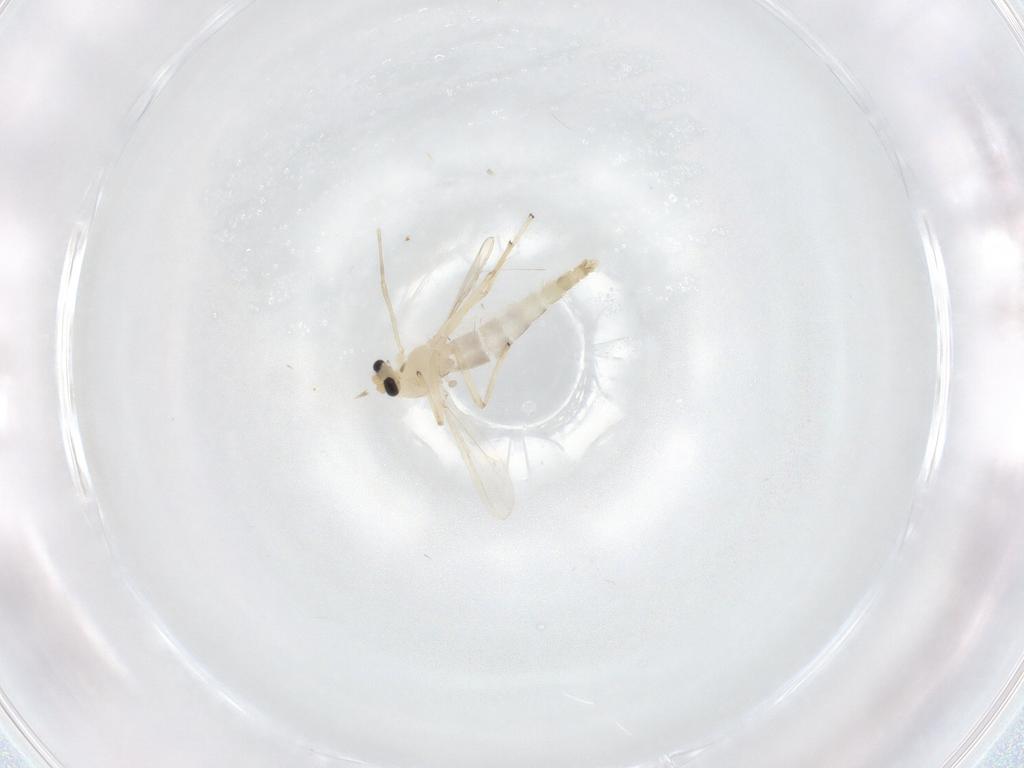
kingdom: Animalia
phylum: Arthropoda
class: Insecta
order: Diptera
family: Chironomidae
